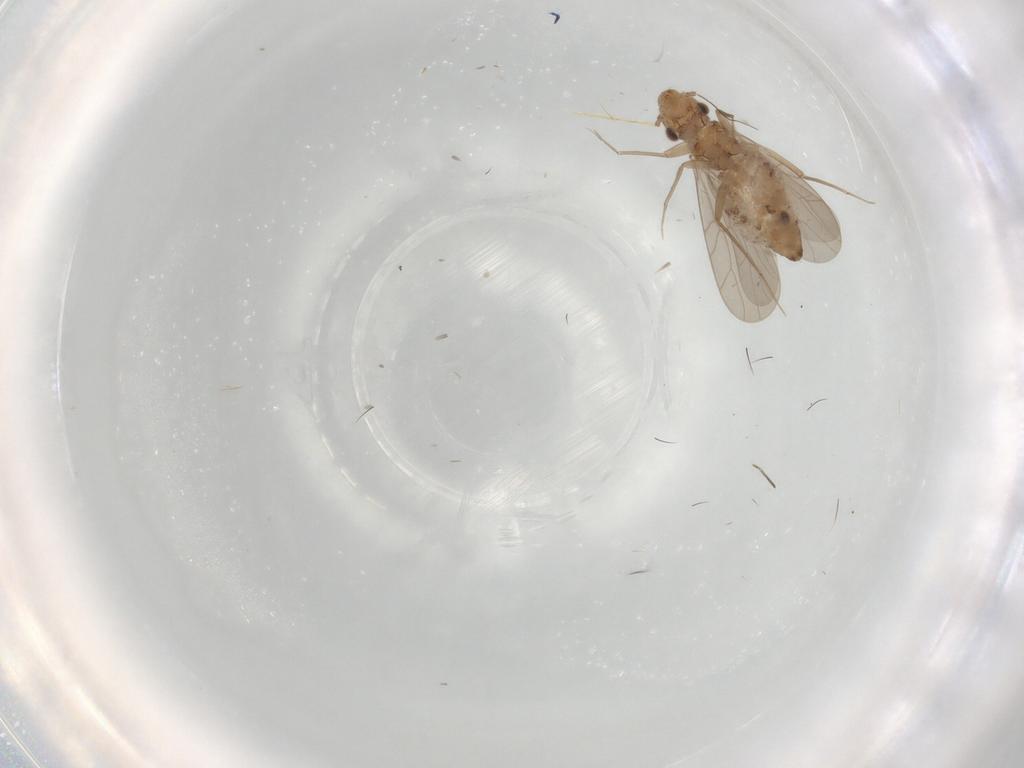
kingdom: Animalia
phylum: Arthropoda
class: Insecta
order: Psocodea
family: Lepidopsocidae
